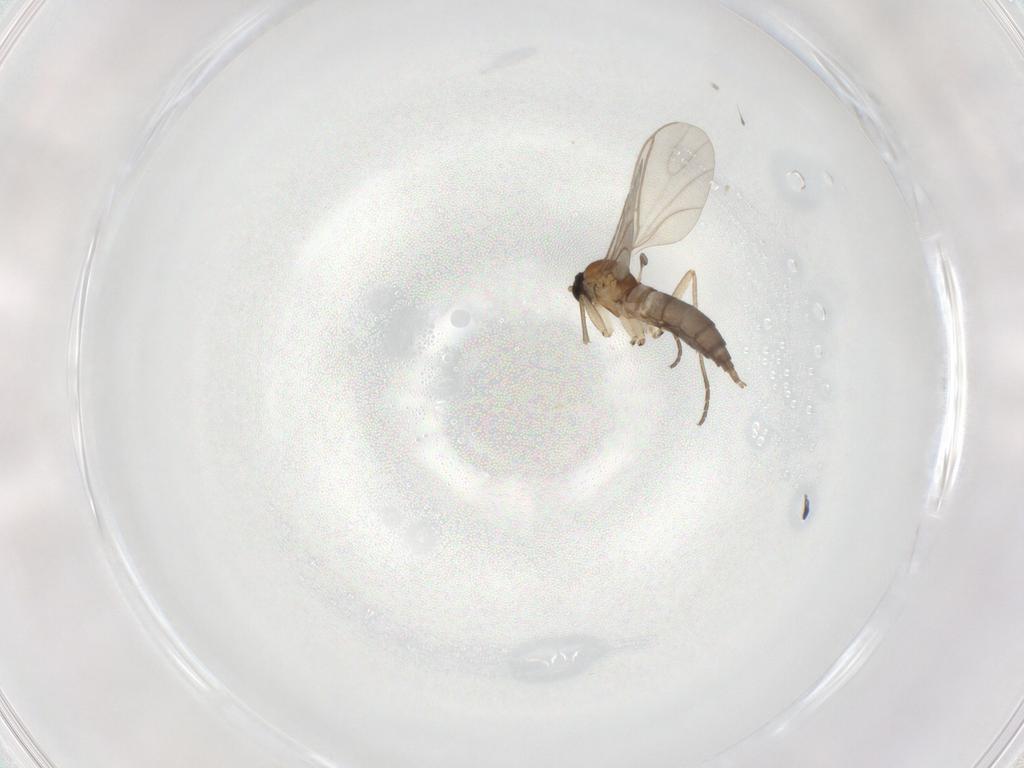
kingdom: Animalia
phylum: Arthropoda
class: Insecta
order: Diptera
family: Sciaridae
